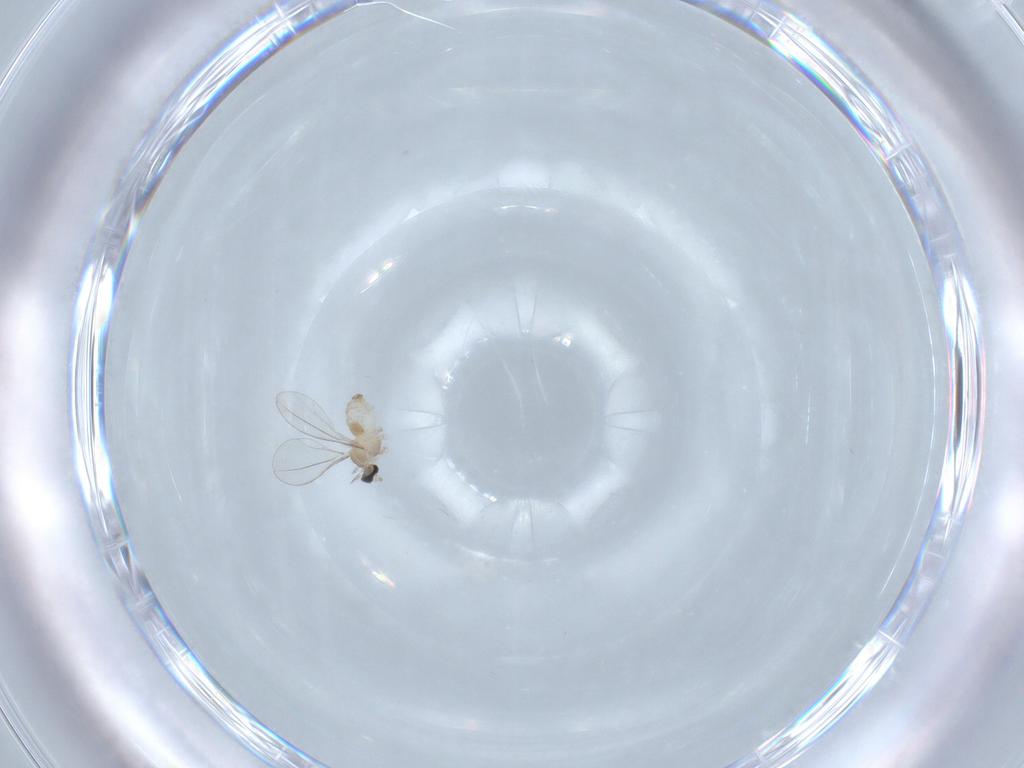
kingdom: Animalia
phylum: Arthropoda
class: Insecta
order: Diptera
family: Cecidomyiidae
